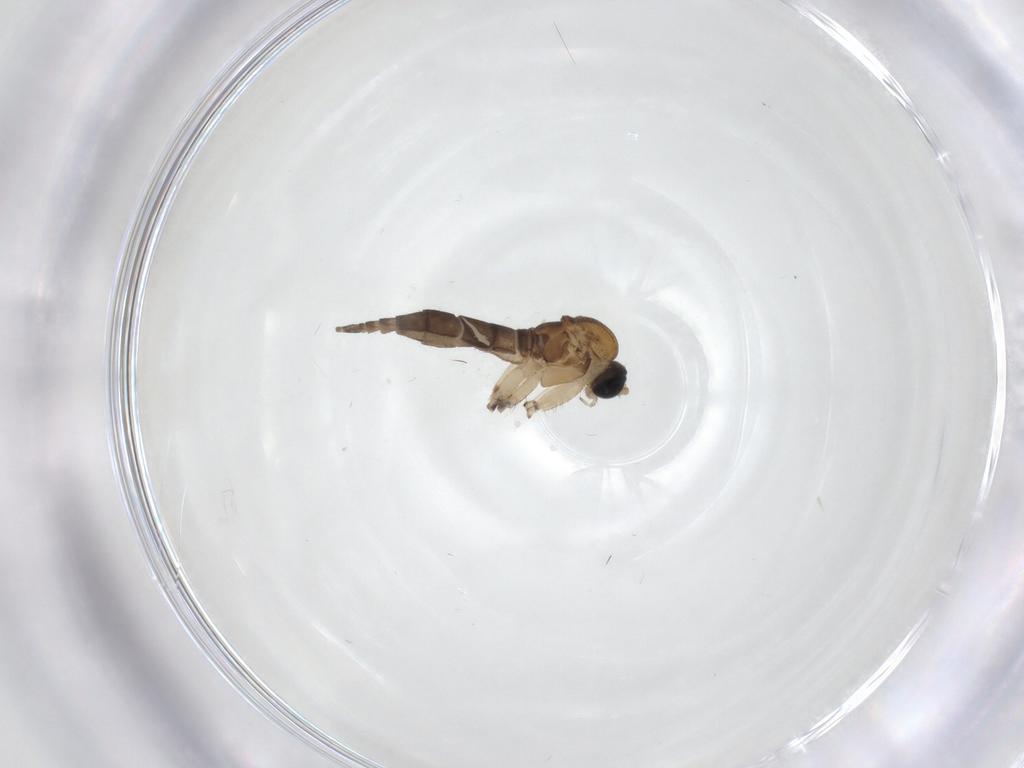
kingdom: Animalia
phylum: Arthropoda
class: Insecta
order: Diptera
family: Sciaridae
